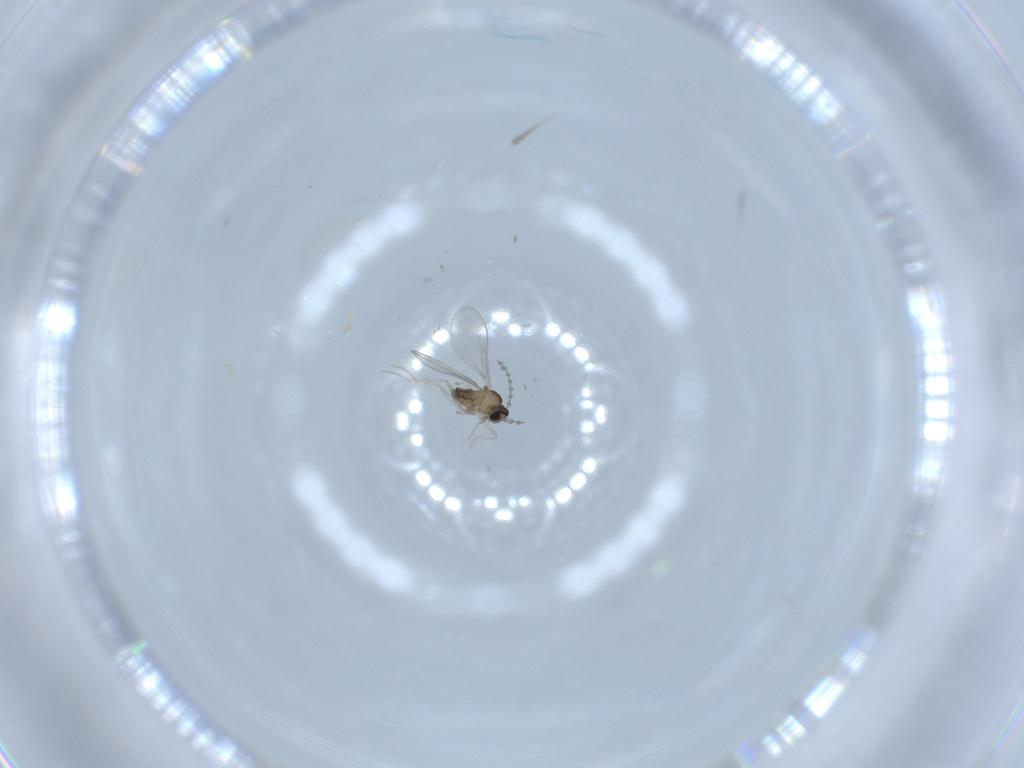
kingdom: Animalia
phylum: Arthropoda
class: Insecta
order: Diptera
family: Cecidomyiidae
